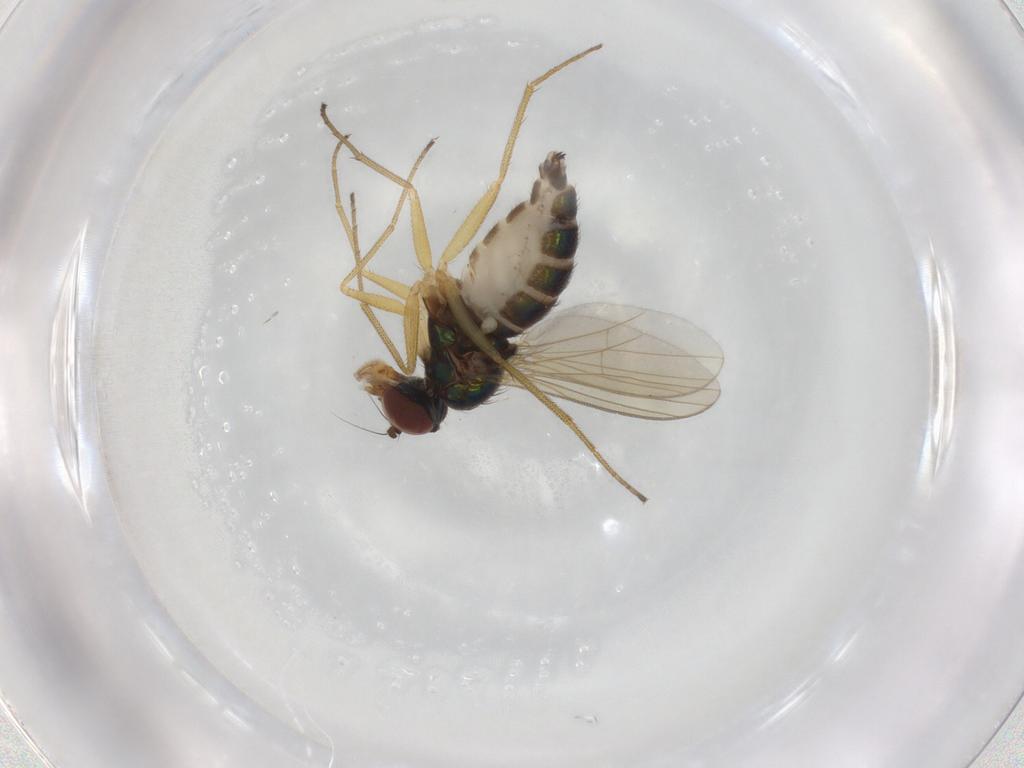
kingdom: Animalia
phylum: Arthropoda
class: Insecta
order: Diptera
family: Dolichopodidae
